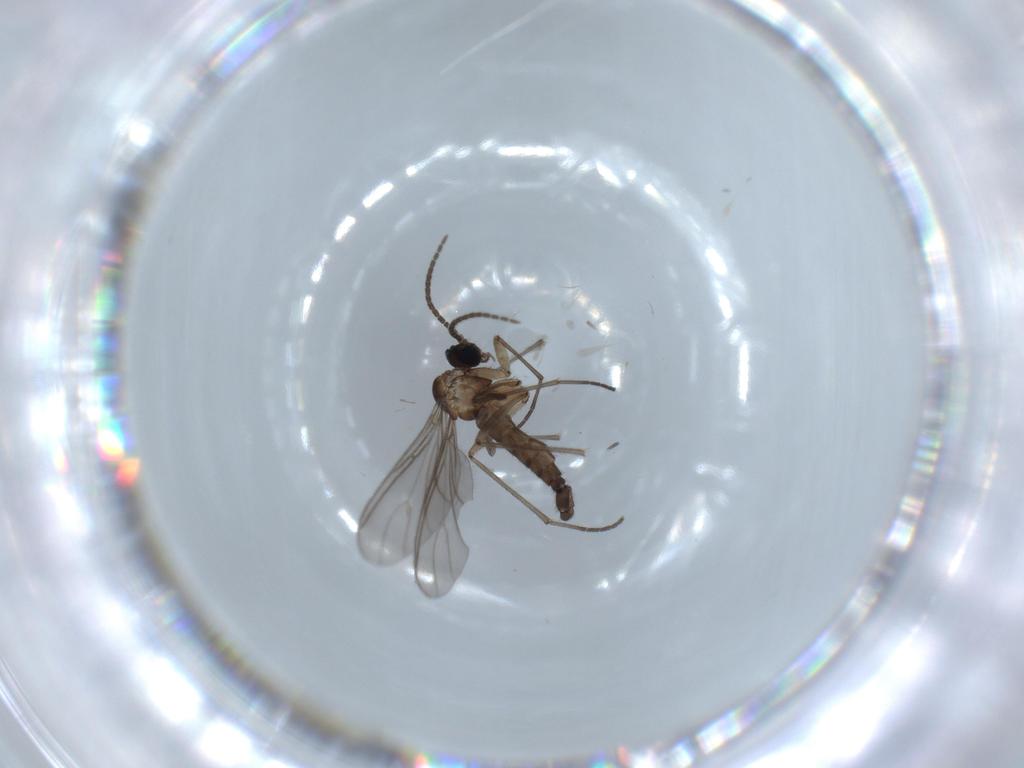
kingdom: Animalia
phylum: Arthropoda
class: Insecta
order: Diptera
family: Sciaridae
